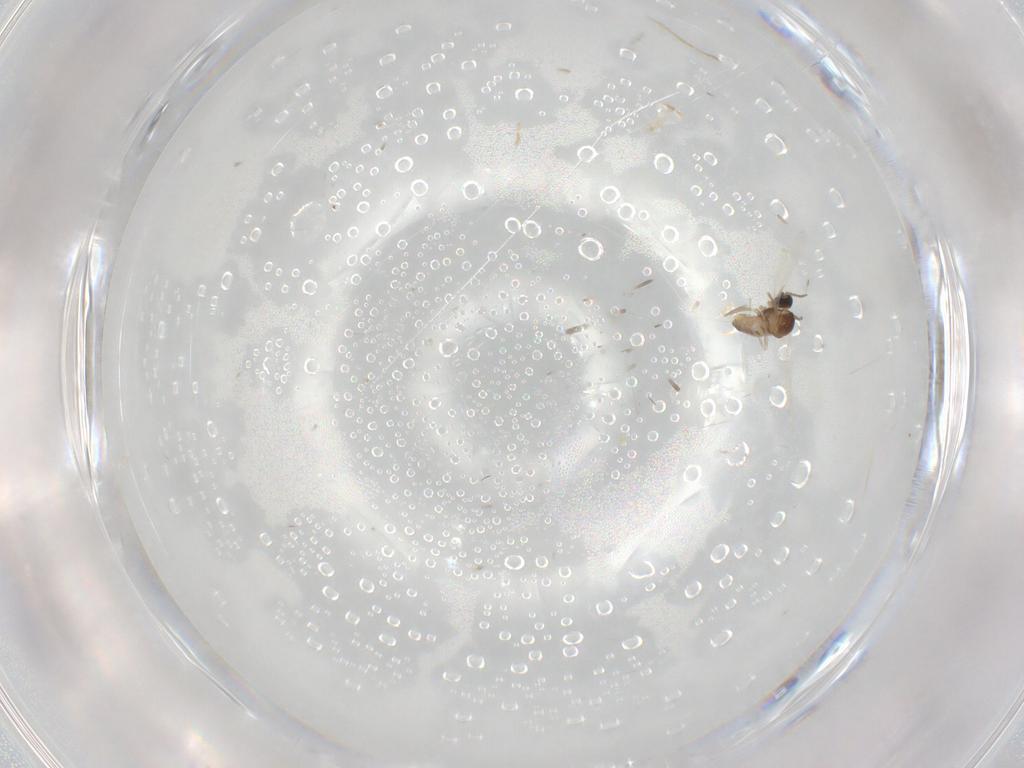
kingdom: Animalia
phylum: Arthropoda
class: Insecta
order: Diptera
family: Cecidomyiidae
